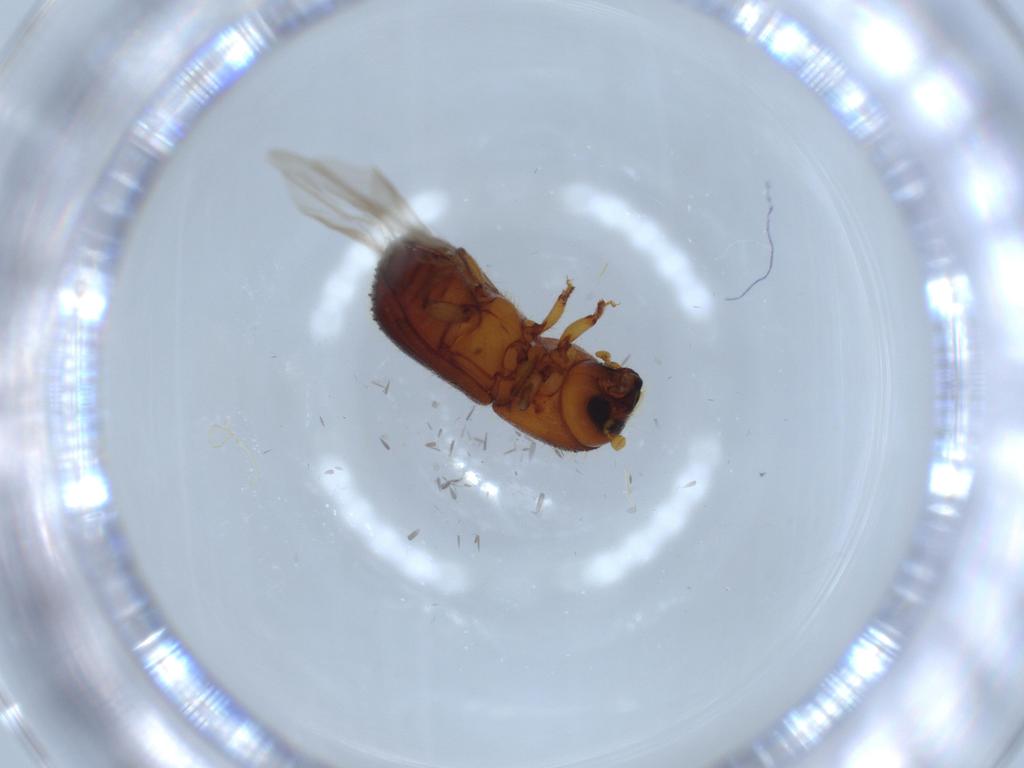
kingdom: Animalia
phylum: Arthropoda
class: Insecta
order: Coleoptera
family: Curculionidae
